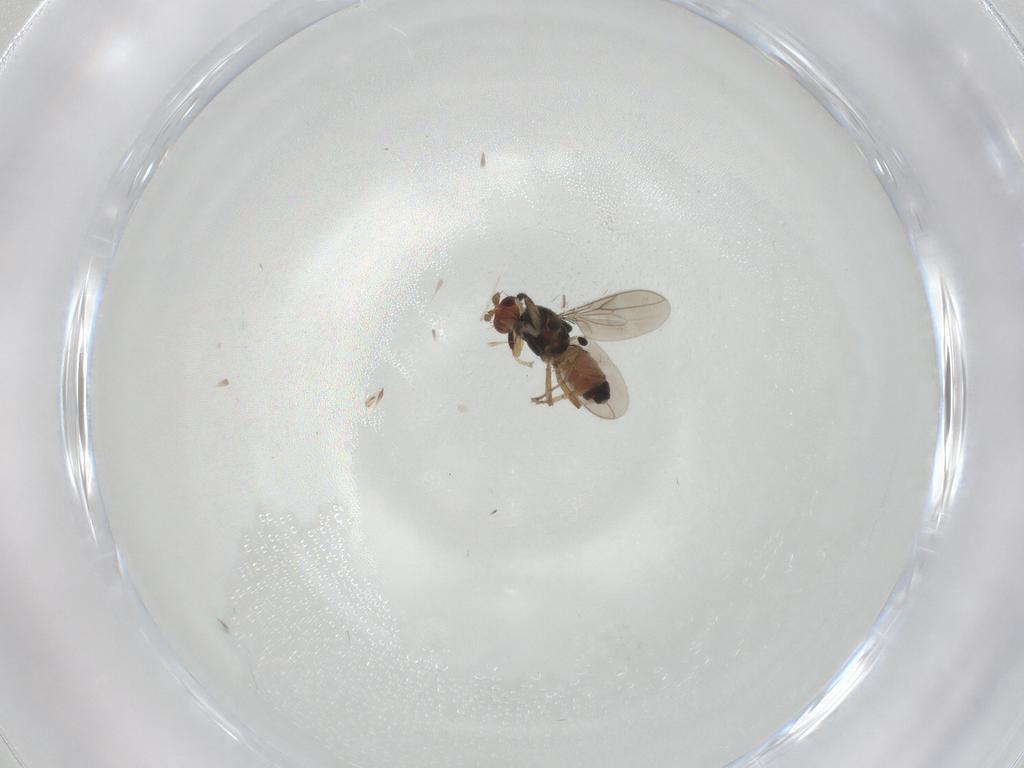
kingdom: Animalia
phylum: Arthropoda
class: Insecta
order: Diptera
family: Sphaeroceridae
